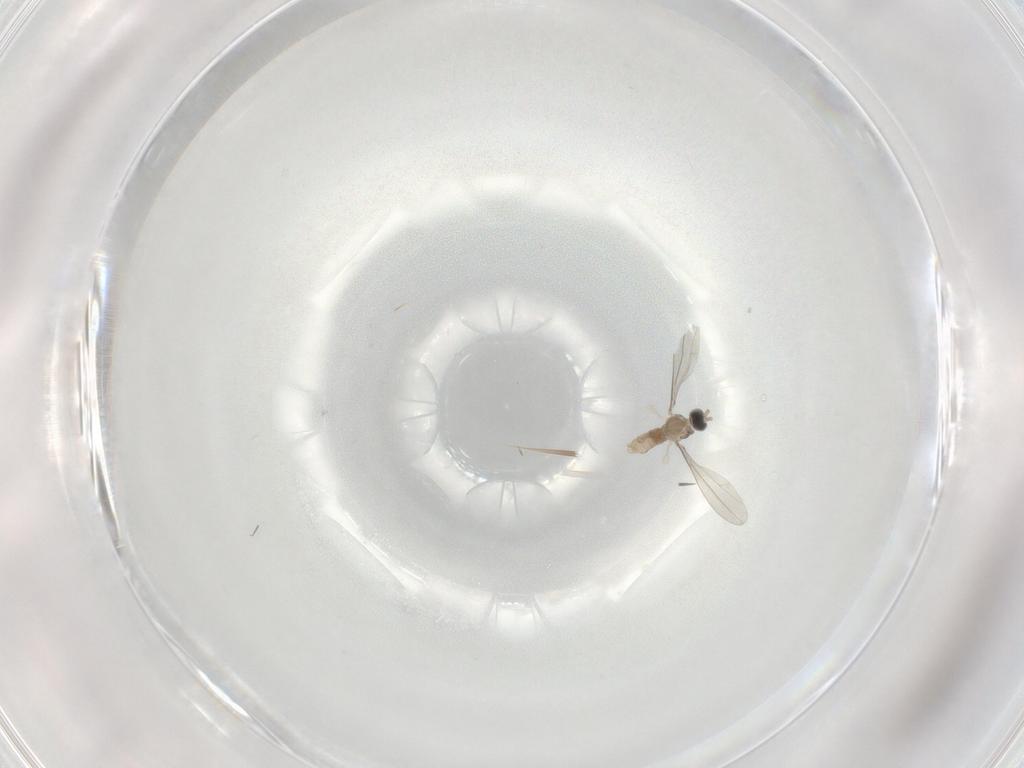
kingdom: Animalia
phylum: Arthropoda
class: Insecta
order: Diptera
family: Cecidomyiidae
